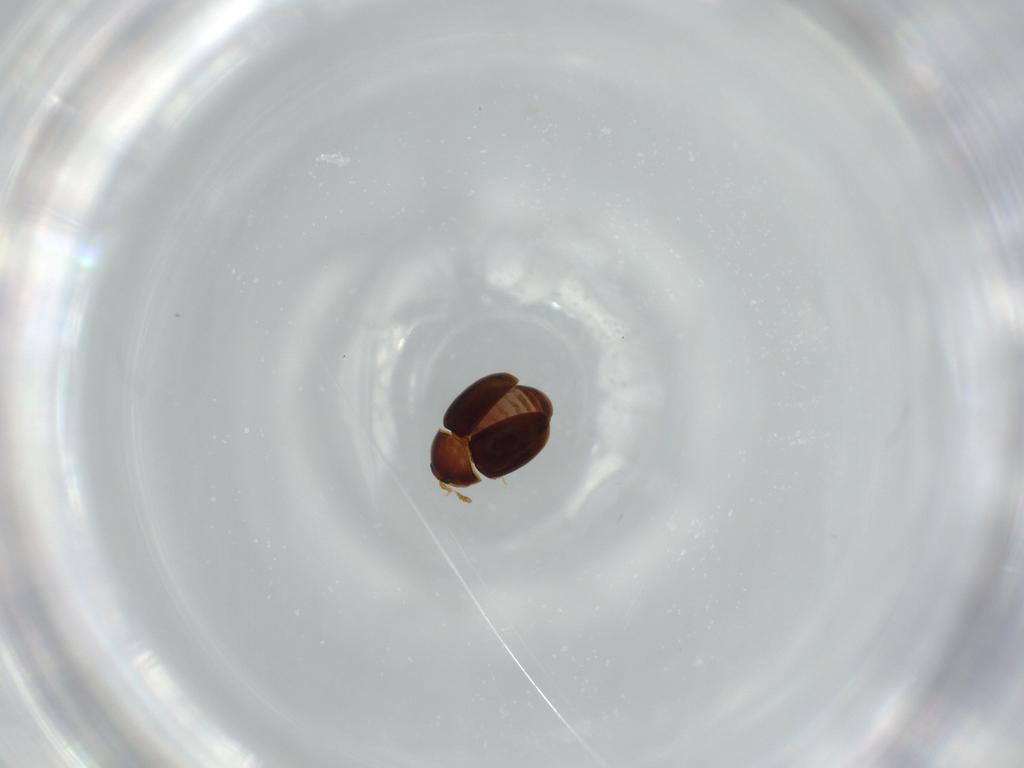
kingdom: Animalia
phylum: Arthropoda
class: Insecta
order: Coleoptera
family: Corylophidae
